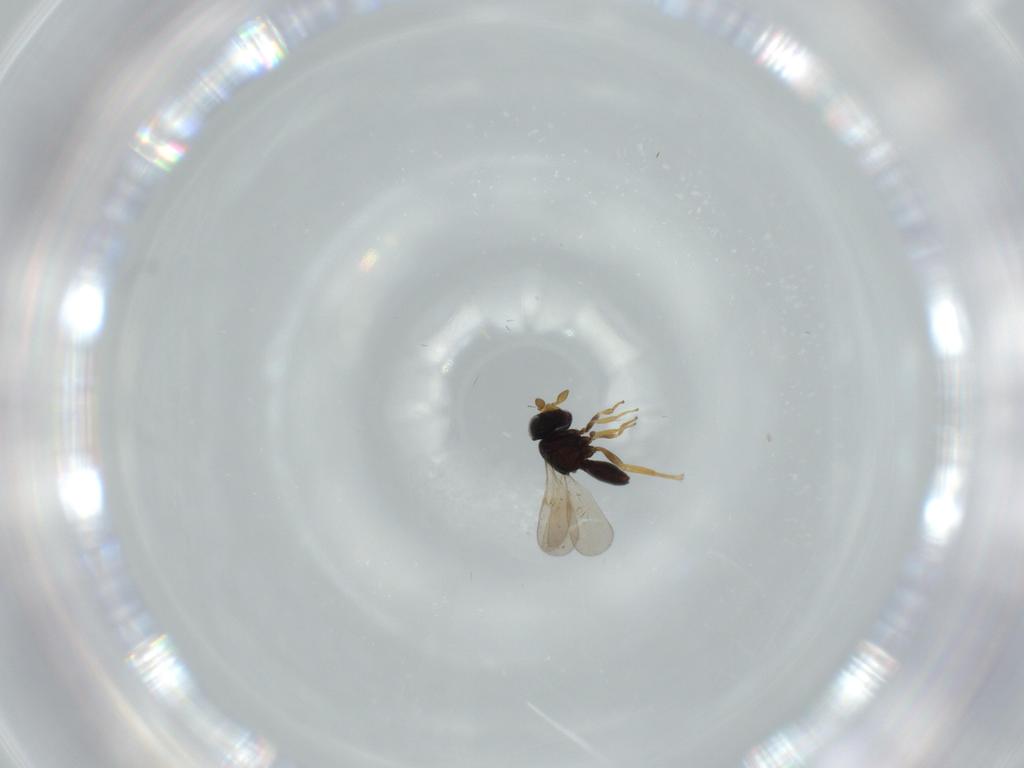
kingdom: Animalia
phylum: Arthropoda
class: Insecta
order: Hymenoptera
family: Scelionidae
